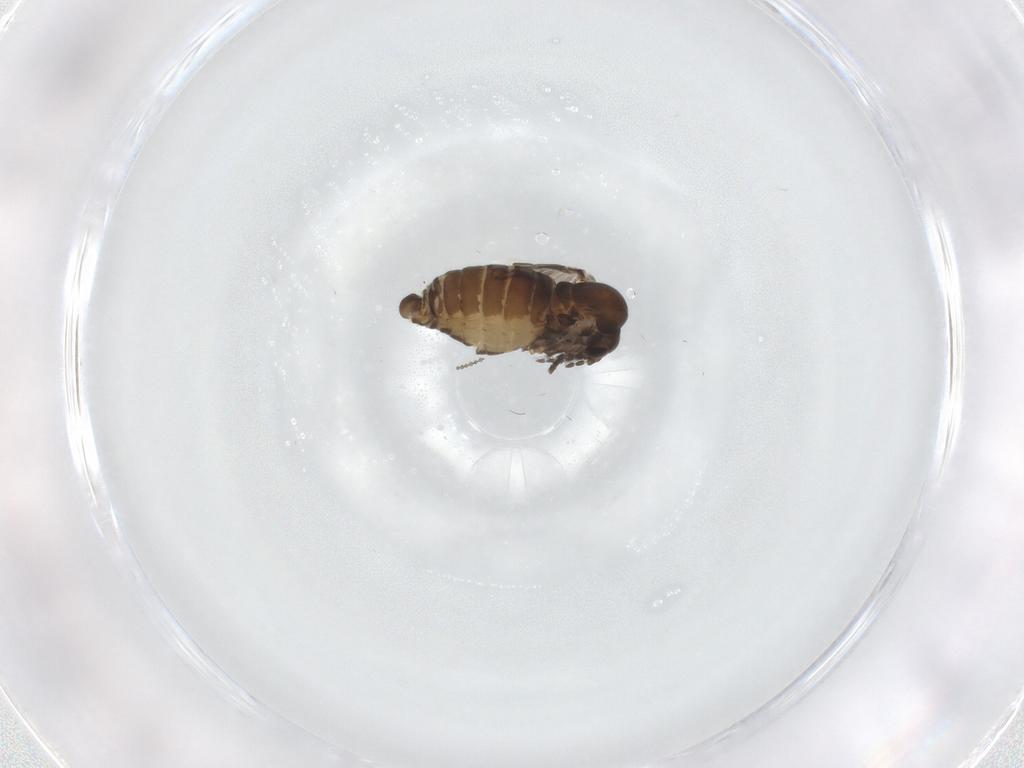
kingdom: Animalia
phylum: Arthropoda
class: Insecta
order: Diptera
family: Psychodidae
